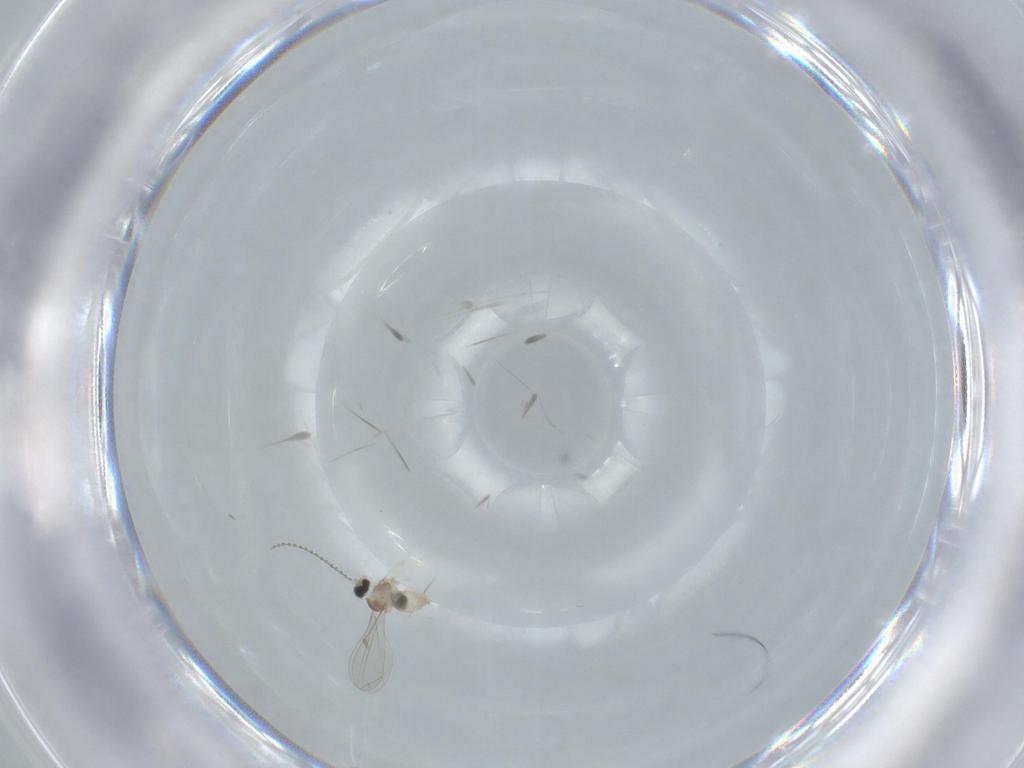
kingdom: Animalia
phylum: Arthropoda
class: Insecta
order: Diptera
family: Cecidomyiidae
